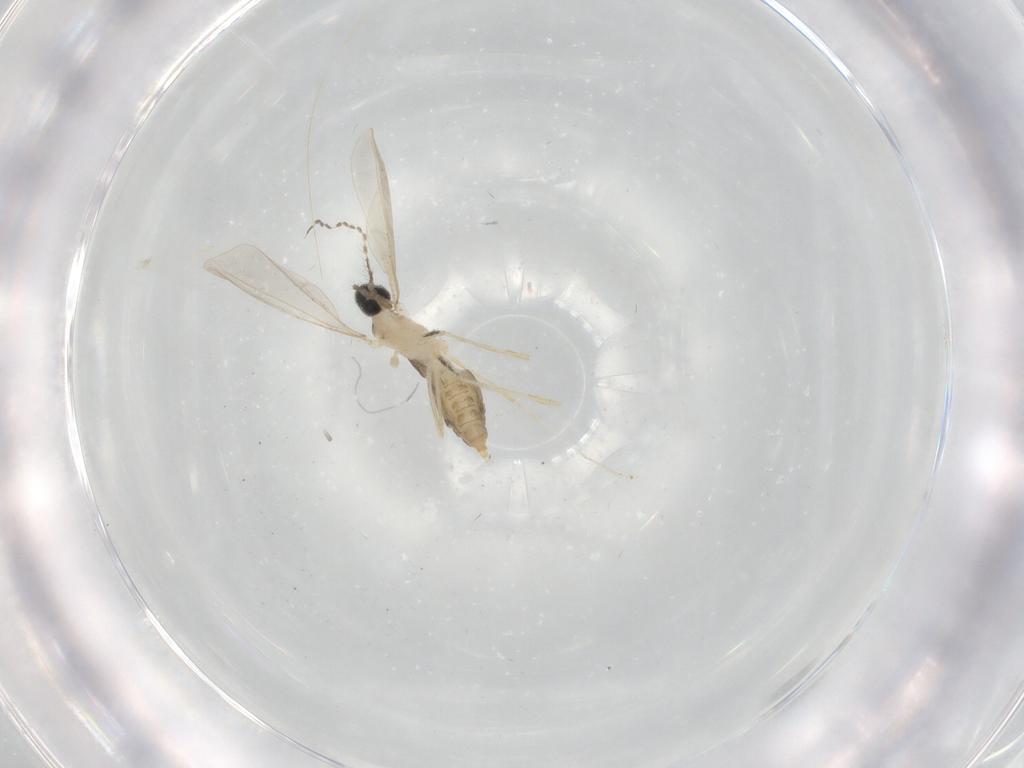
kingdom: Animalia
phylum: Arthropoda
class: Insecta
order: Diptera
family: Cecidomyiidae
